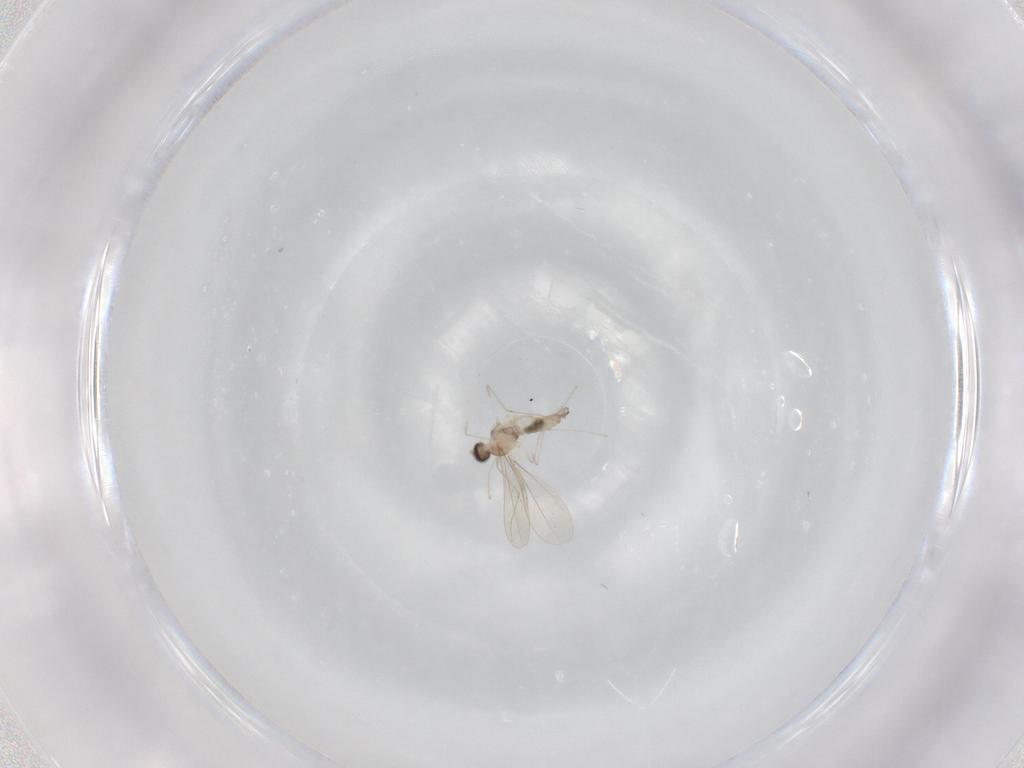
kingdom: Animalia
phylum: Arthropoda
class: Insecta
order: Diptera
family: Cecidomyiidae
